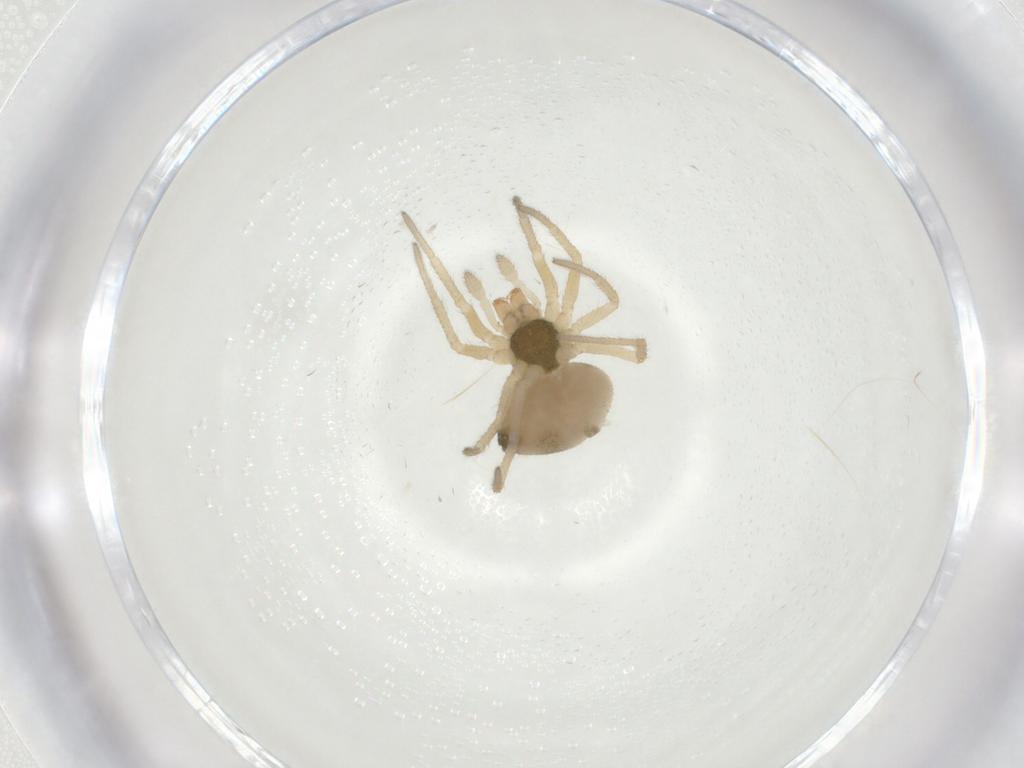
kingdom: Animalia
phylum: Arthropoda
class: Arachnida
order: Araneae
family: Linyphiidae
